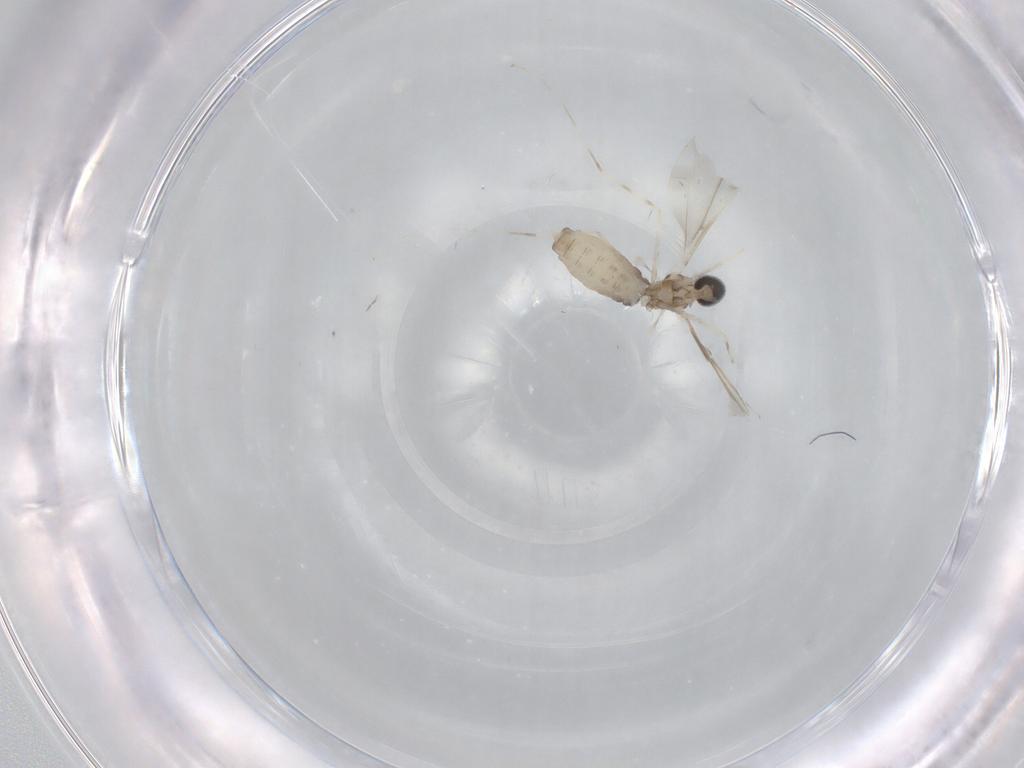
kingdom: Animalia
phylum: Arthropoda
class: Insecta
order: Diptera
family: Cecidomyiidae
